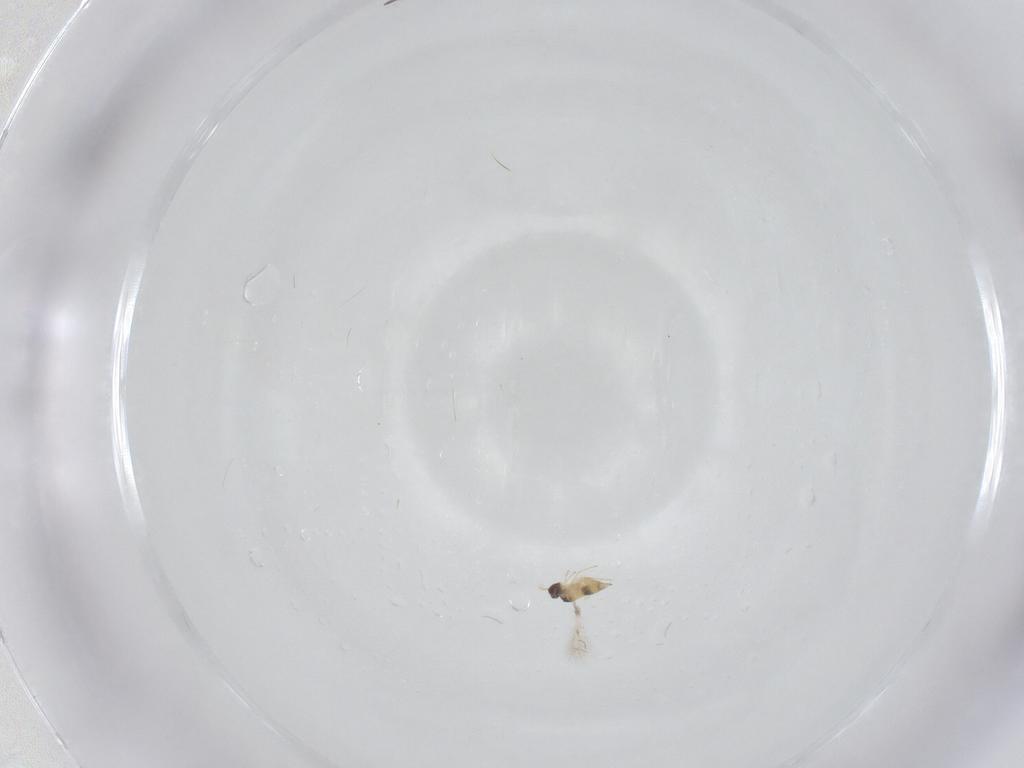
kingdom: Animalia
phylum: Arthropoda
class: Insecta
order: Hymenoptera
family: Mymaridae
